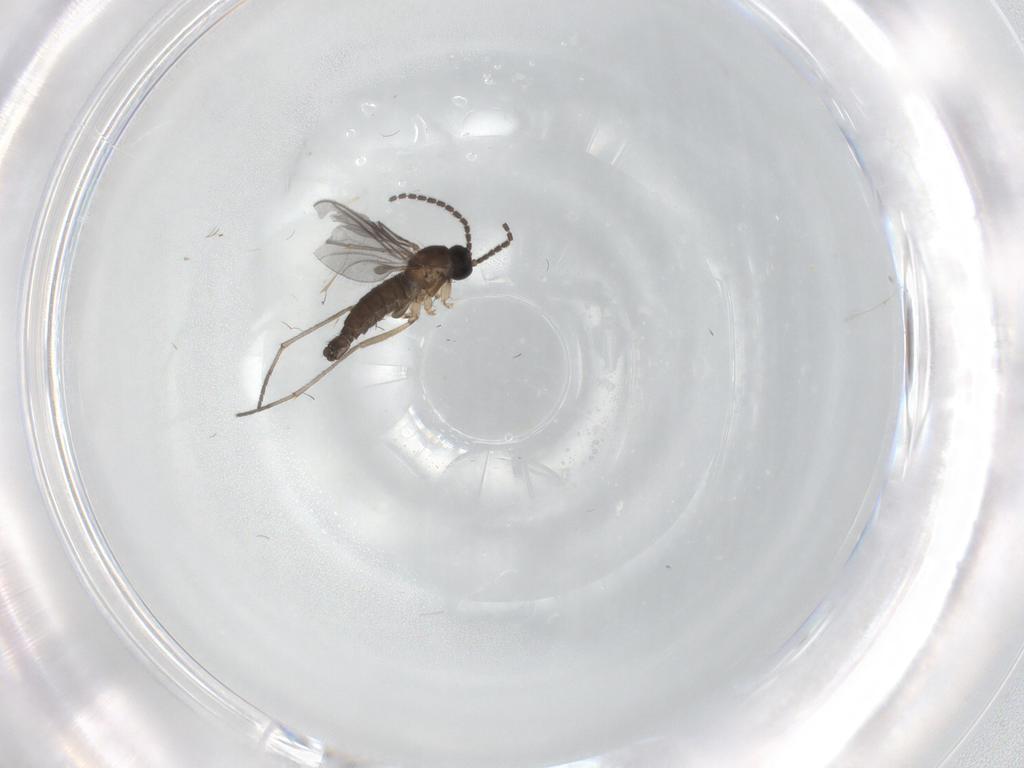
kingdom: Animalia
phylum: Arthropoda
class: Insecta
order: Diptera
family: Sciaridae
